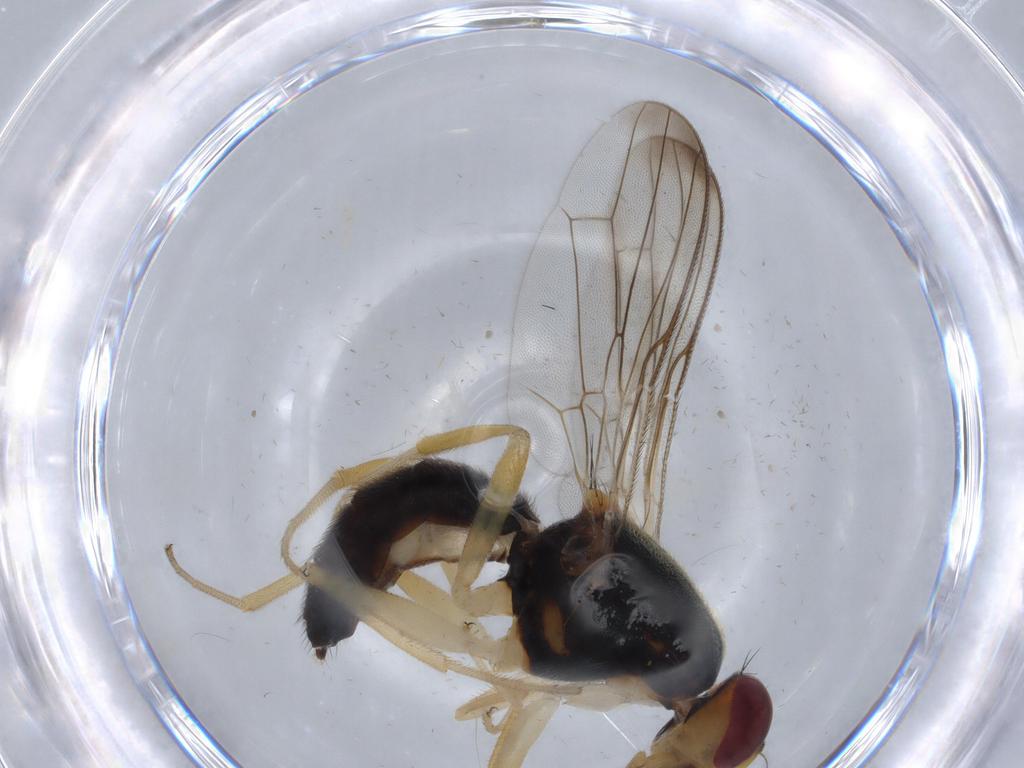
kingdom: Animalia
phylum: Arthropoda
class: Insecta
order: Diptera
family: Psilidae
